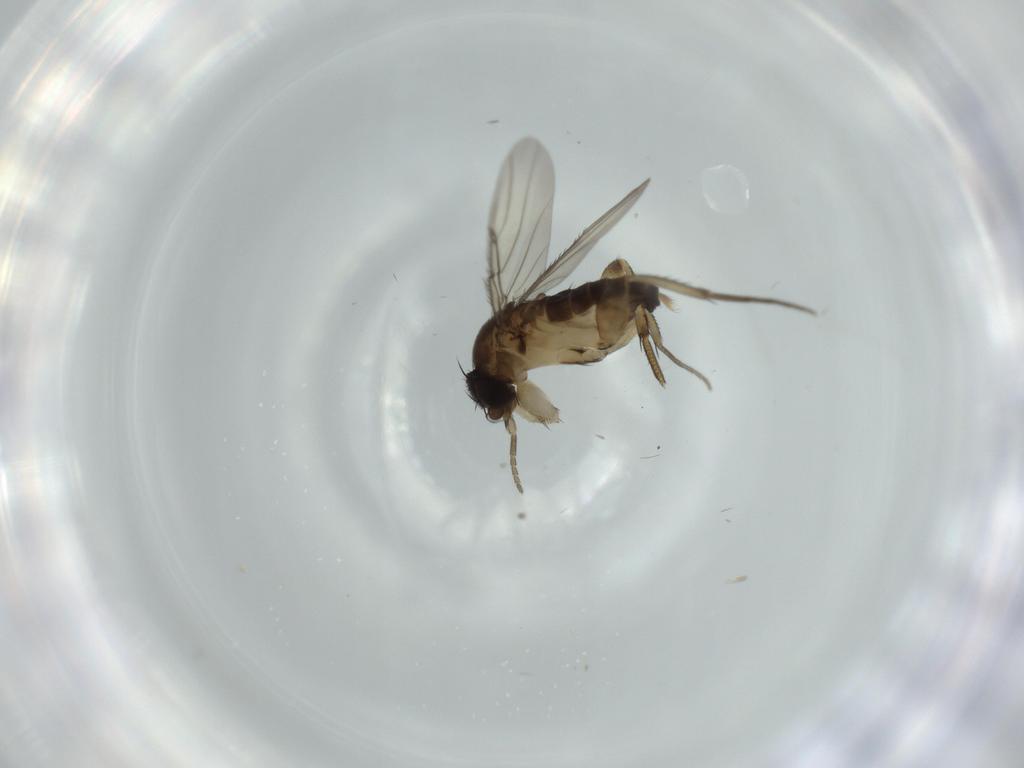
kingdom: Animalia
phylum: Arthropoda
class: Insecta
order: Diptera
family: Phoridae
